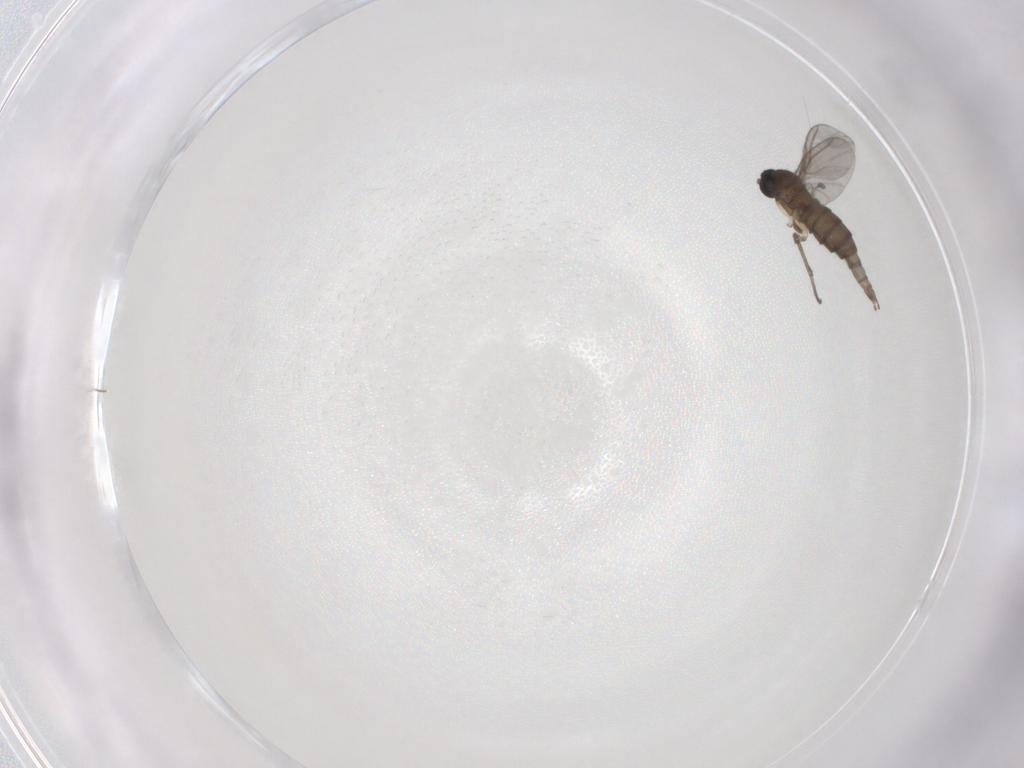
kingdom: Animalia
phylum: Arthropoda
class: Insecta
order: Diptera
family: Sciaridae
